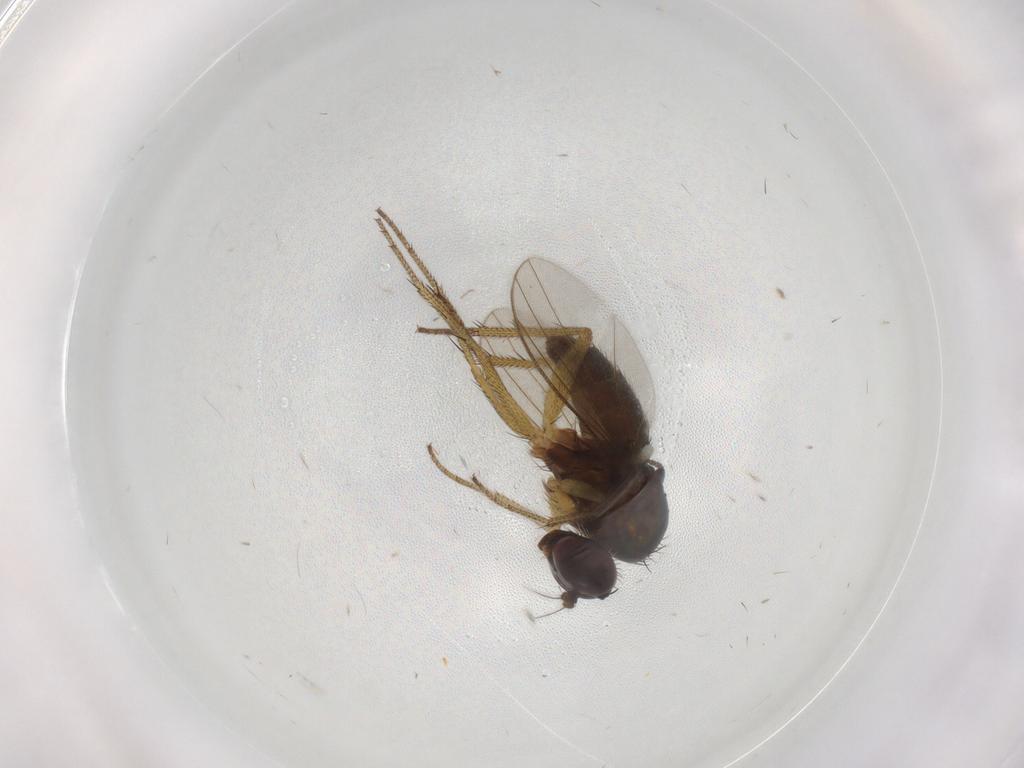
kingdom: Animalia
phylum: Arthropoda
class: Insecta
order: Diptera
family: Sciaridae
